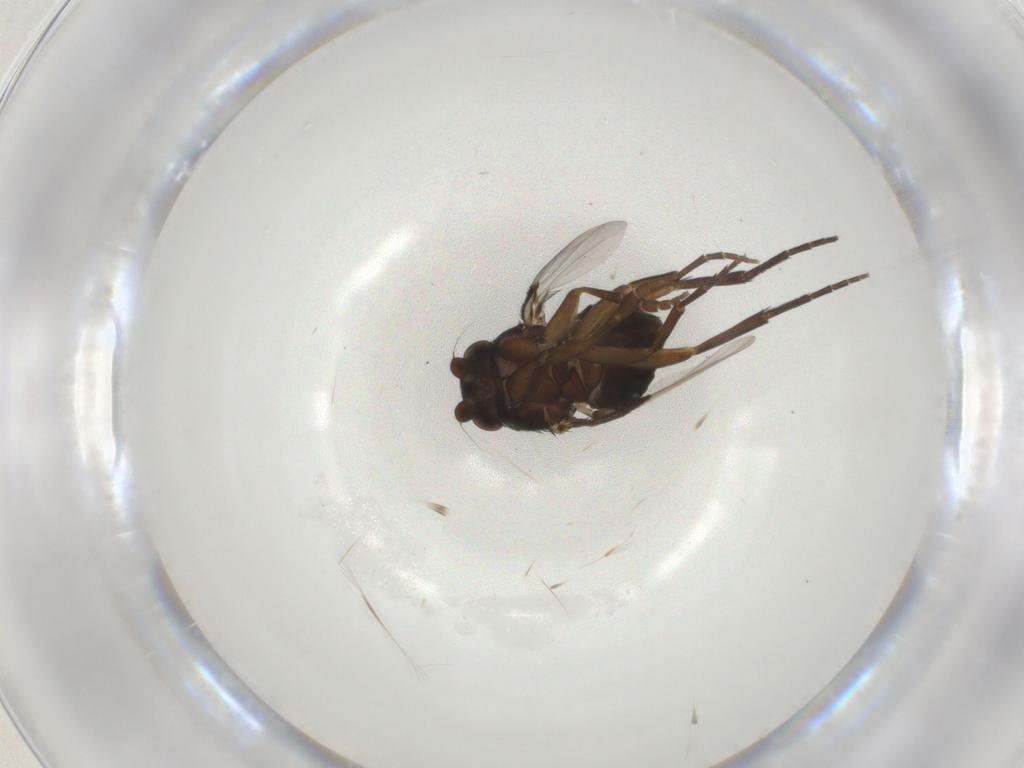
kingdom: Animalia
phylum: Arthropoda
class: Insecta
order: Diptera
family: Phoridae
